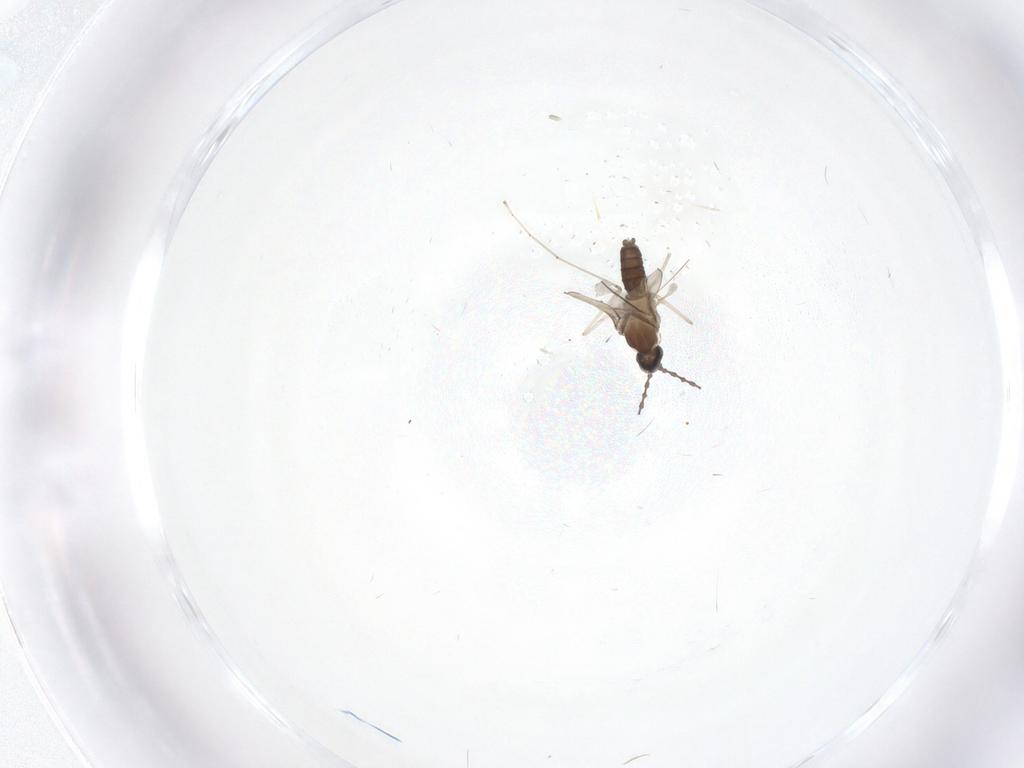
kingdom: Animalia
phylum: Arthropoda
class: Insecta
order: Diptera
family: Chironomidae
